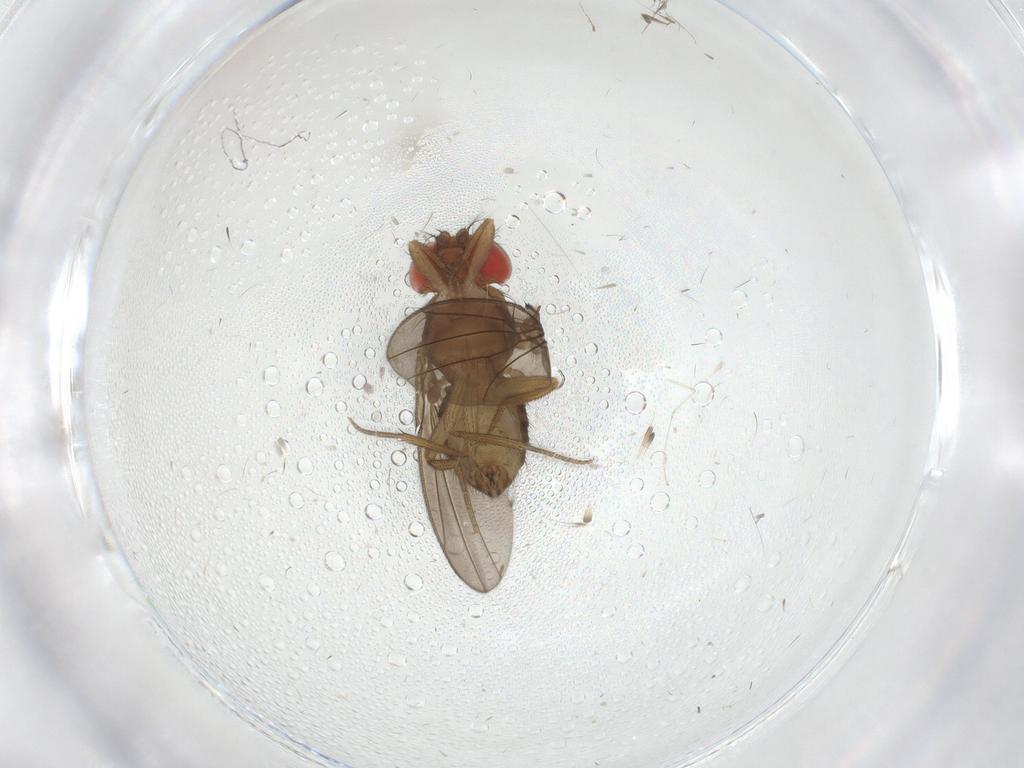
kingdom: Animalia
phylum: Arthropoda
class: Insecta
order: Diptera
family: Drosophilidae
